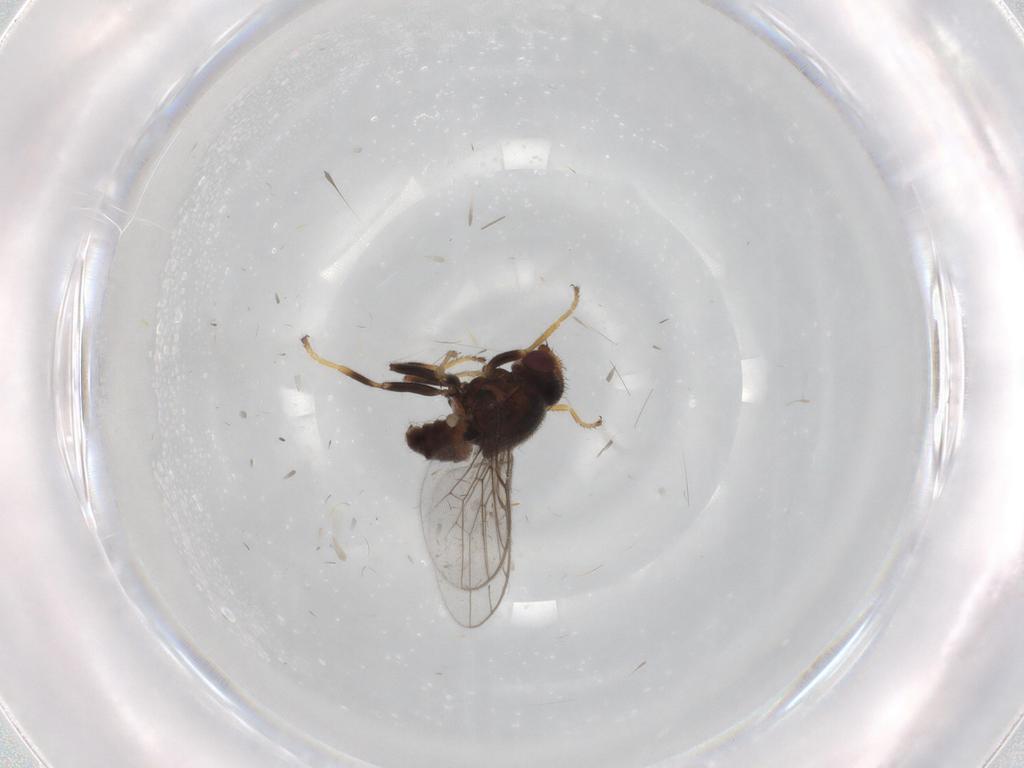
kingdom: Animalia
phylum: Arthropoda
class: Insecta
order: Diptera
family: Chloropidae
